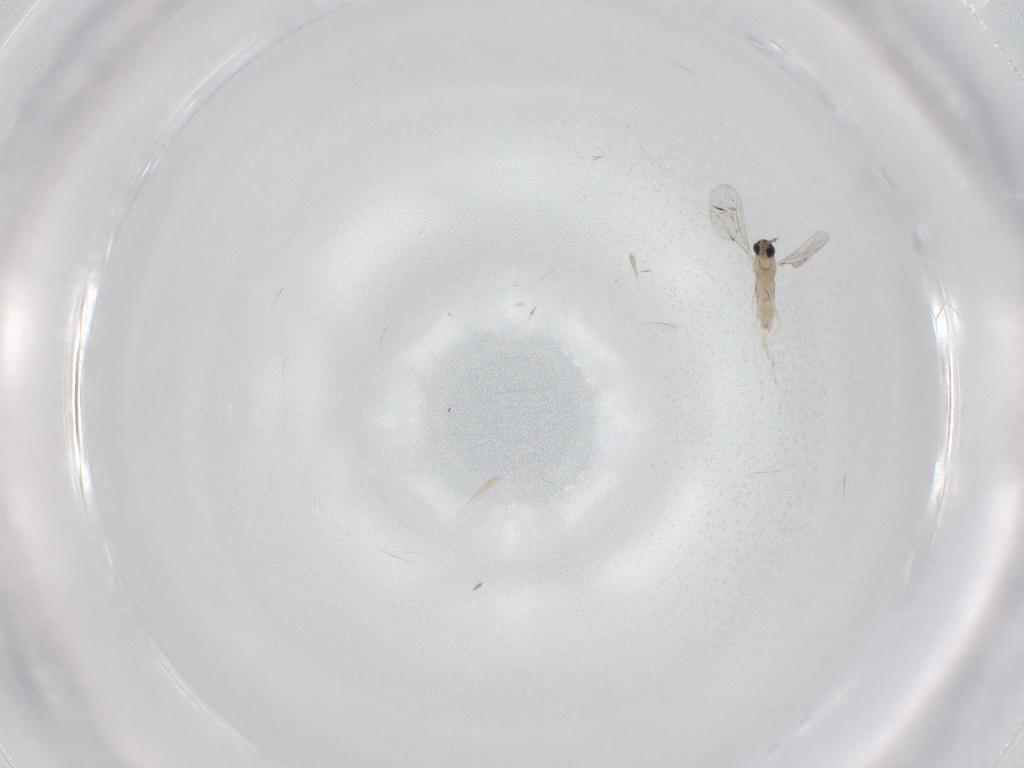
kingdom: Animalia
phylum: Arthropoda
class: Insecta
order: Diptera
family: Cecidomyiidae
